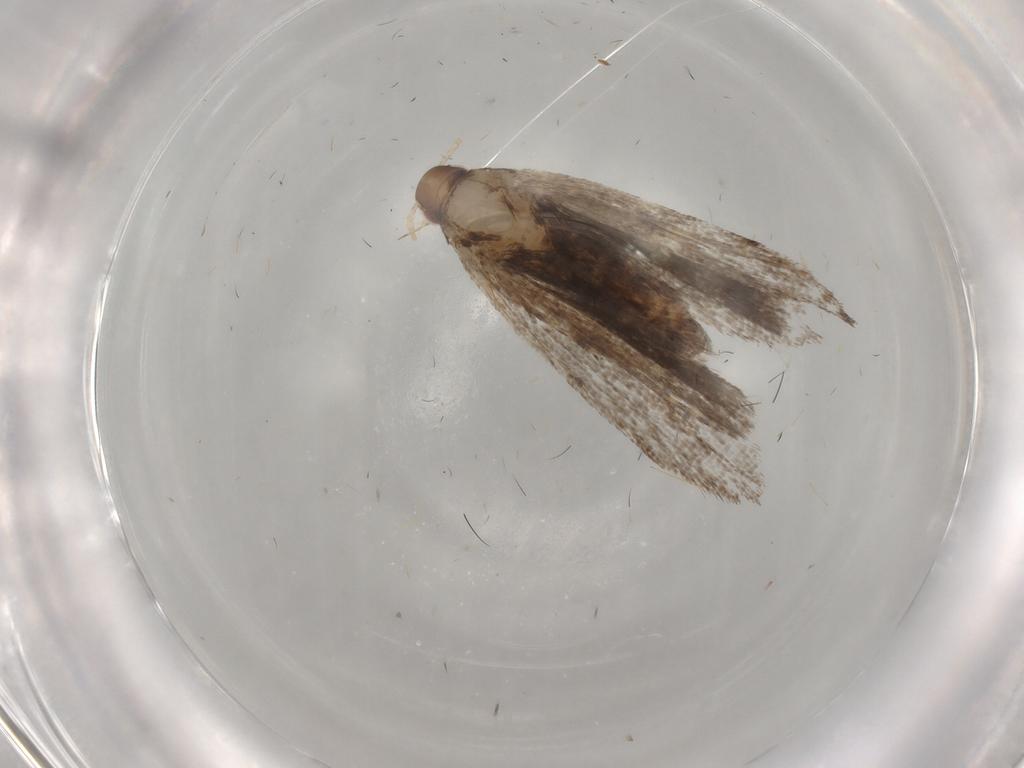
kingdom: Animalia
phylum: Arthropoda
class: Insecta
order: Lepidoptera
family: Gelechiidae
